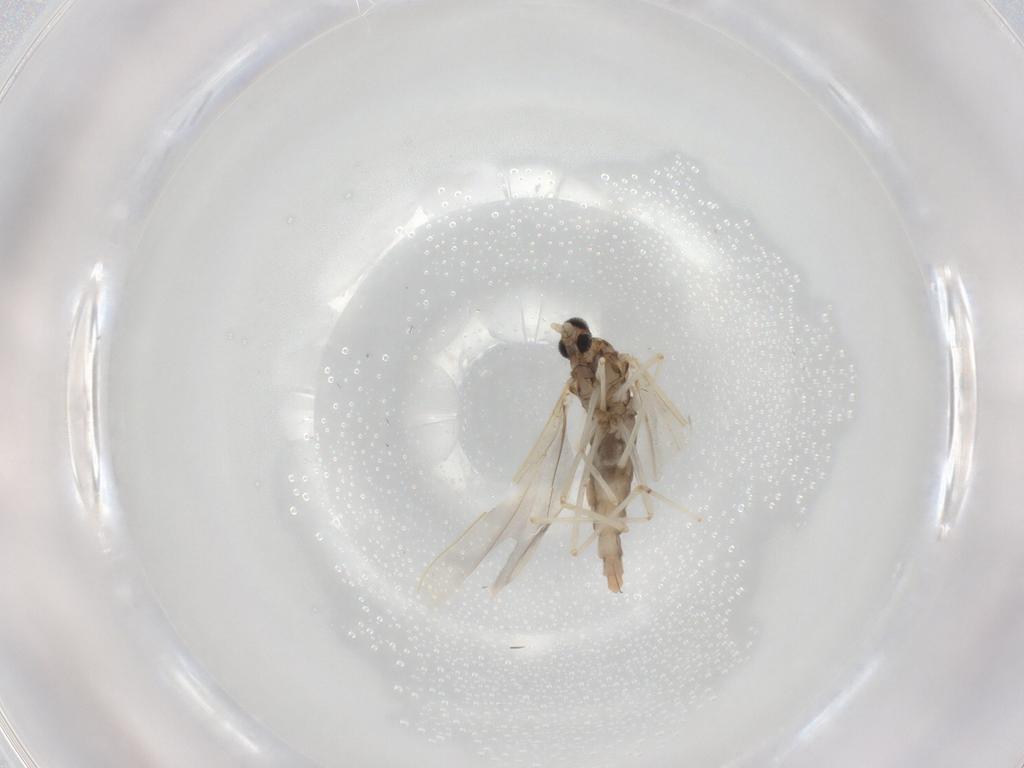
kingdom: Animalia
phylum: Arthropoda
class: Insecta
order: Diptera
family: Cecidomyiidae
